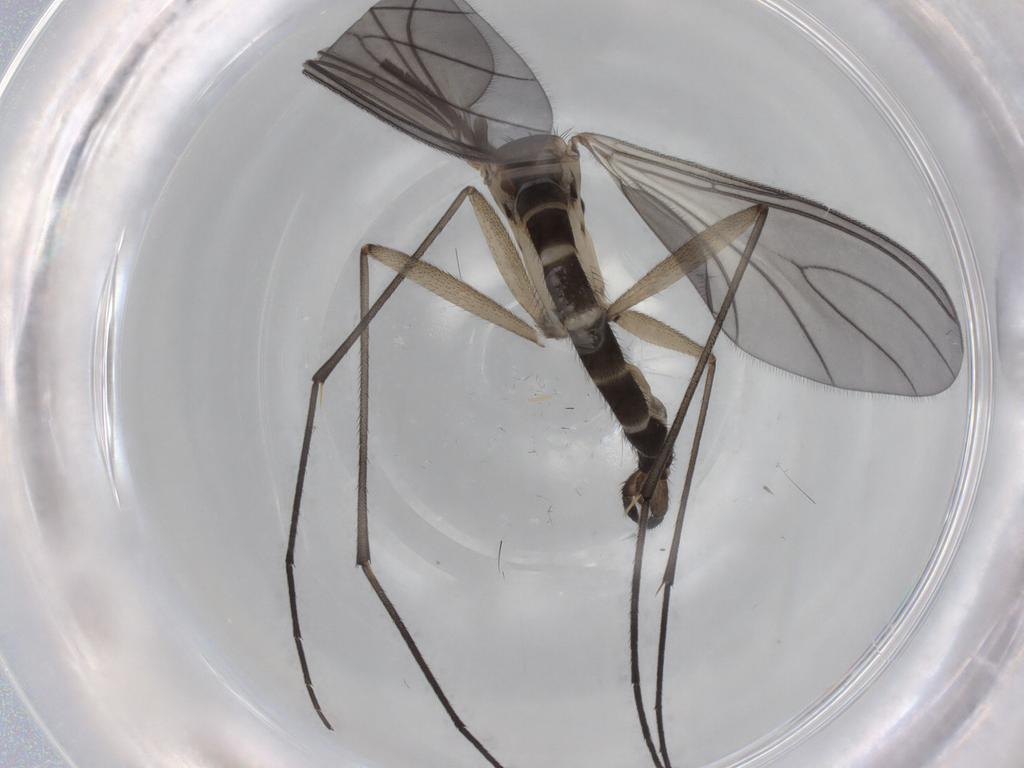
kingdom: Animalia
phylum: Arthropoda
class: Insecta
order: Diptera
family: Sciaridae
